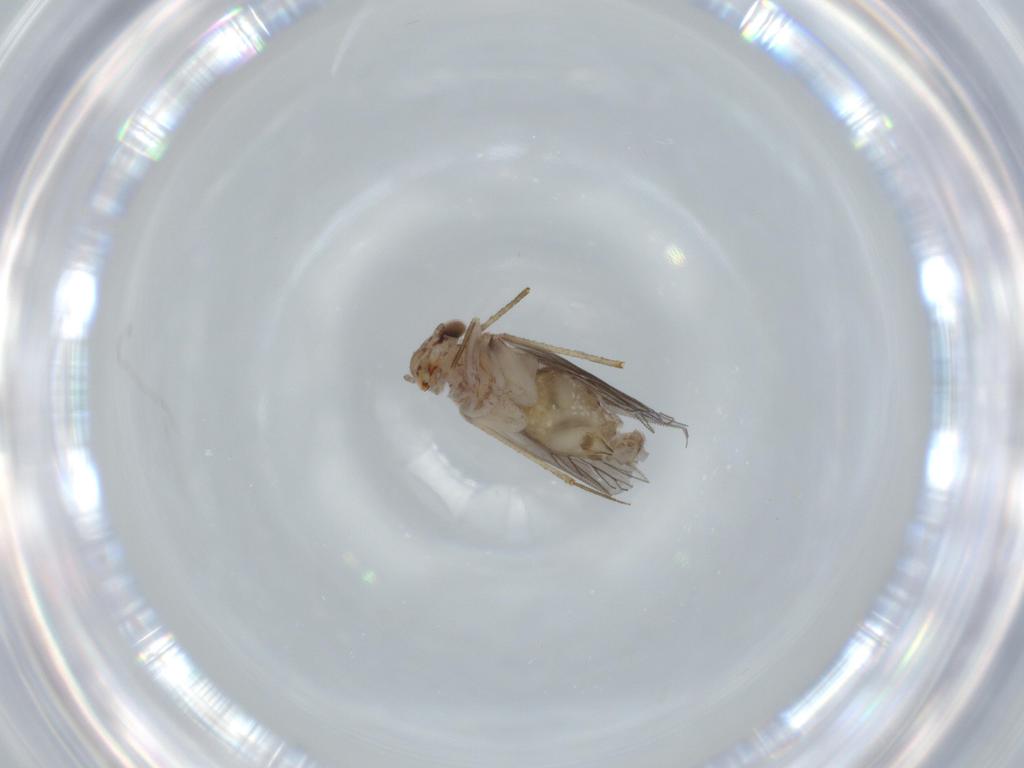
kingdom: Animalia
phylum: Arthropoda
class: Insecta
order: Psocodea
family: Lepidopsocidae
